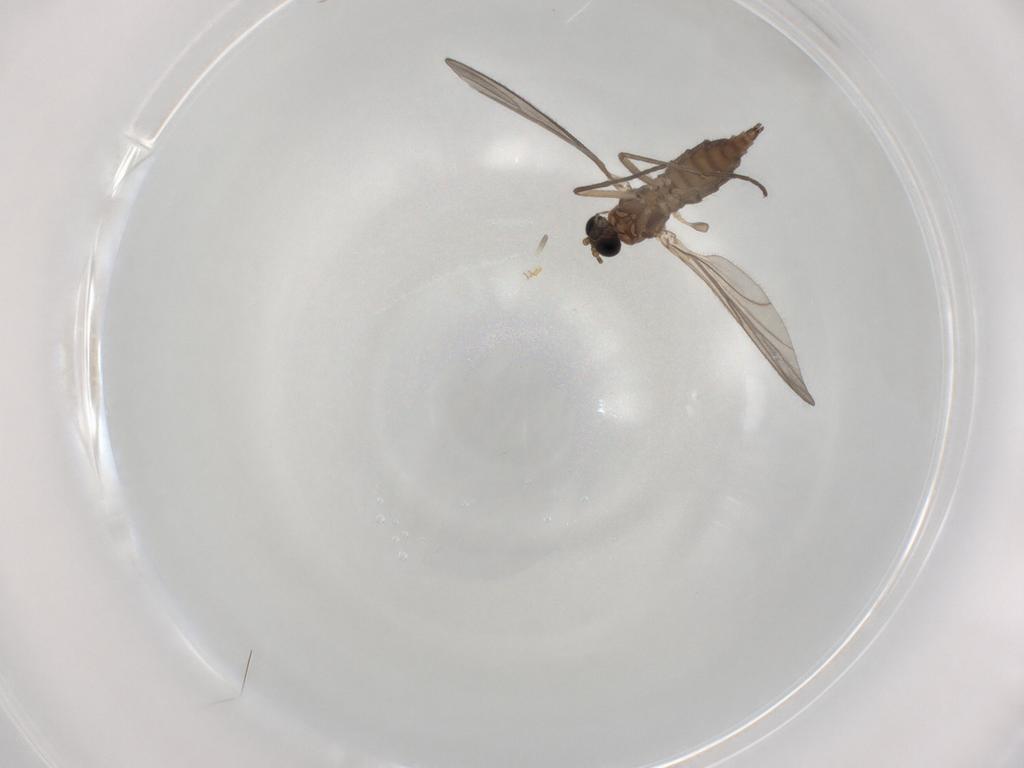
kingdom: Animalia
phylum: Arthropoda
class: Insecta
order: Diptera
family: Sciaridae
